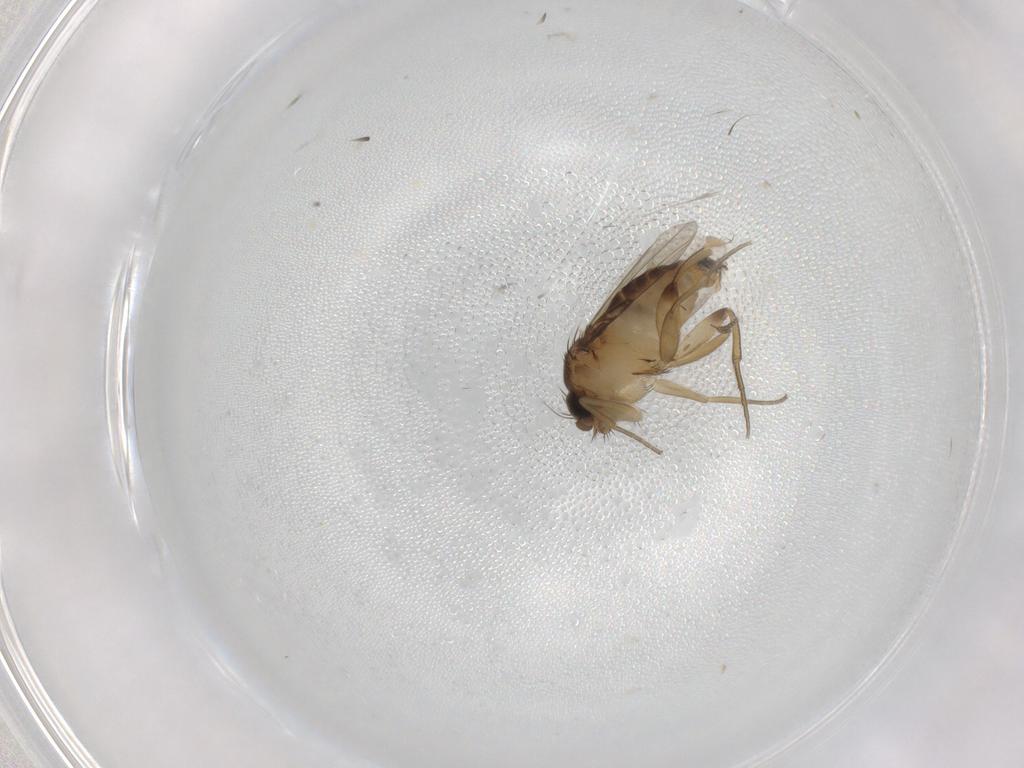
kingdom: Animalia
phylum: Arthropoda
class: Insecta
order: Diptera
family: Phoridae
